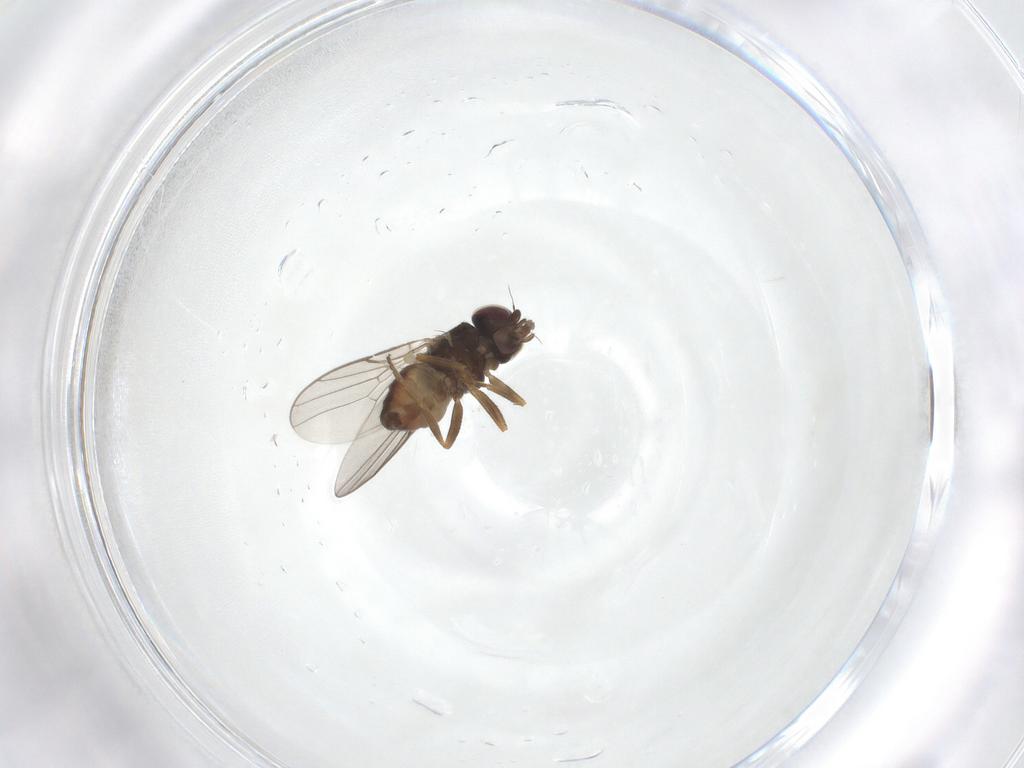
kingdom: Animalia
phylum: Arthropoda
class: Insecta
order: Diptera
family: Chloropidae
